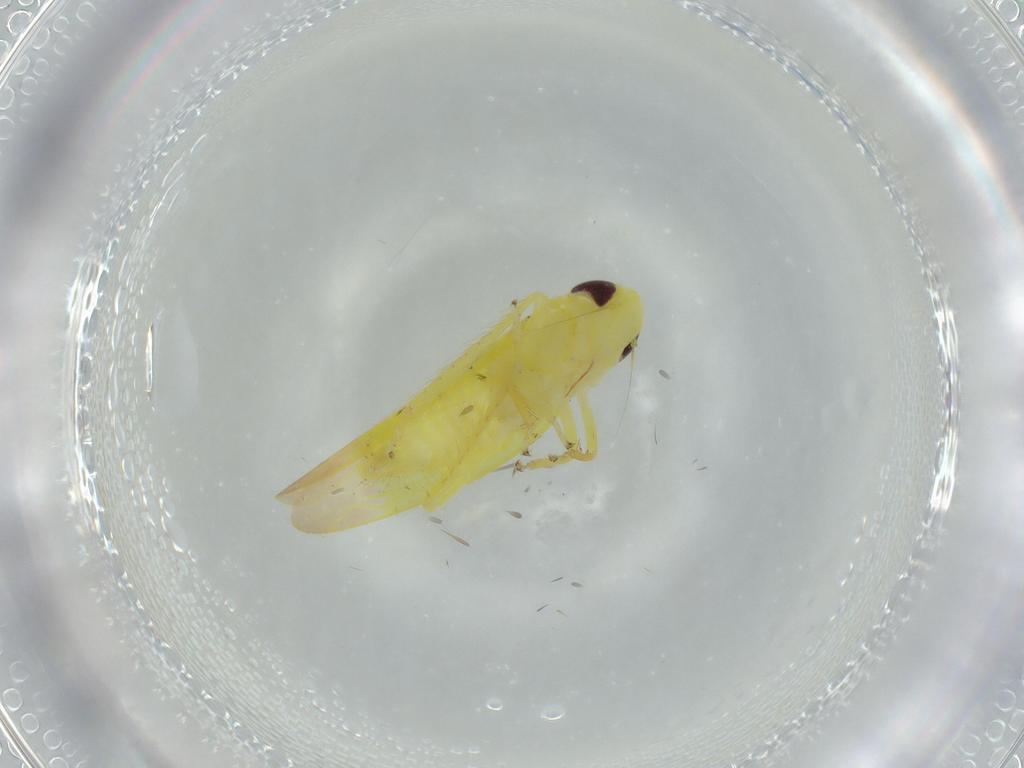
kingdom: Animalia
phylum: Arthropoda
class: Insecta
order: Hemiptera
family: Cicadellidae
